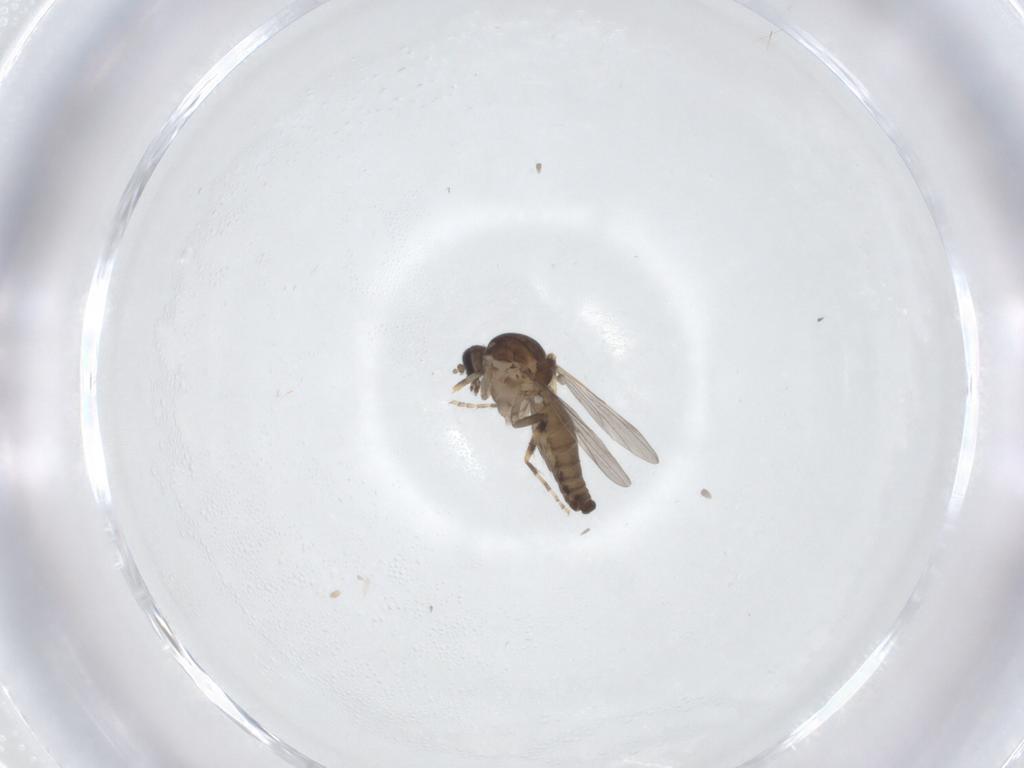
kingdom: Animalia
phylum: Arthropoda
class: Insecta
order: Diptera
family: Ceratopogonidae
